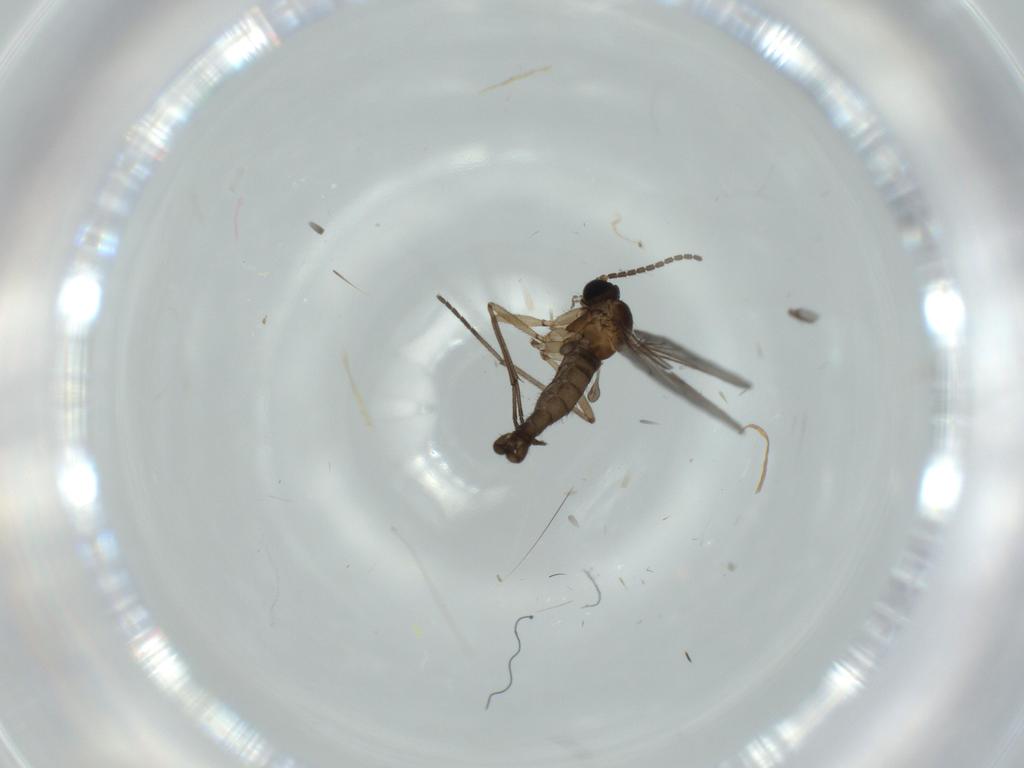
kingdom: Animalia
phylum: Arthropoda
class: Insecta
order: Diptera
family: Sciaridae
